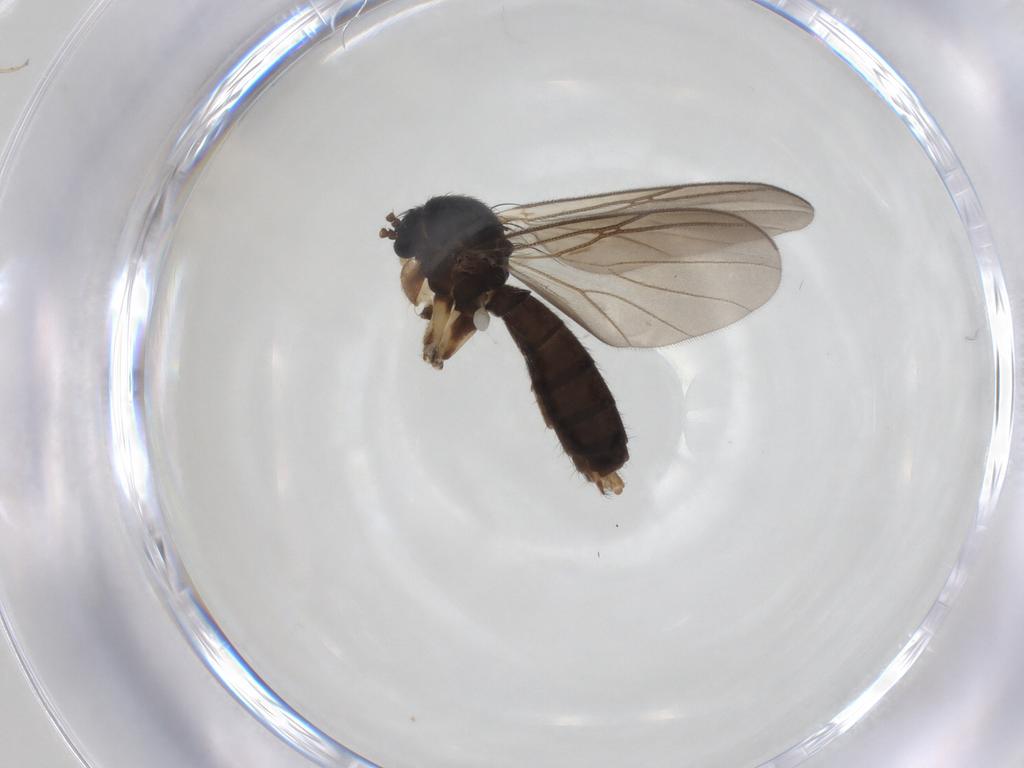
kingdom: Animalia
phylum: Arthropoda
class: Insecta
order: Diptera
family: Mycetophilidae
